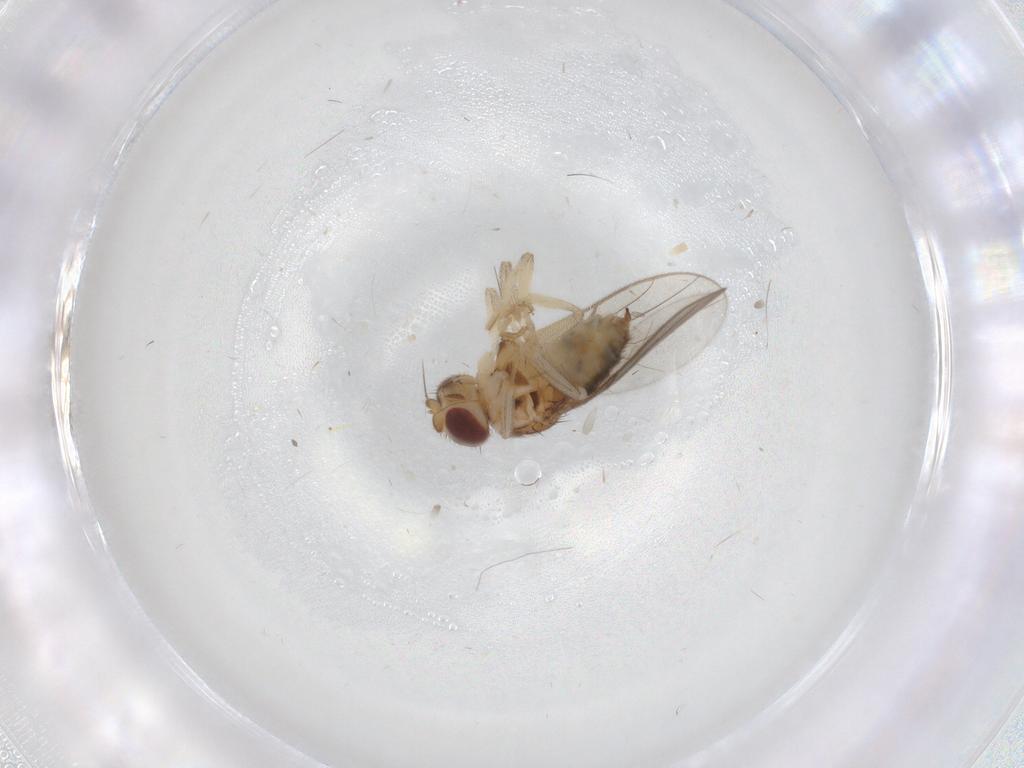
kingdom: Animalia
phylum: Arthropoda
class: Insecta
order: Diptera
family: Chloropidae
